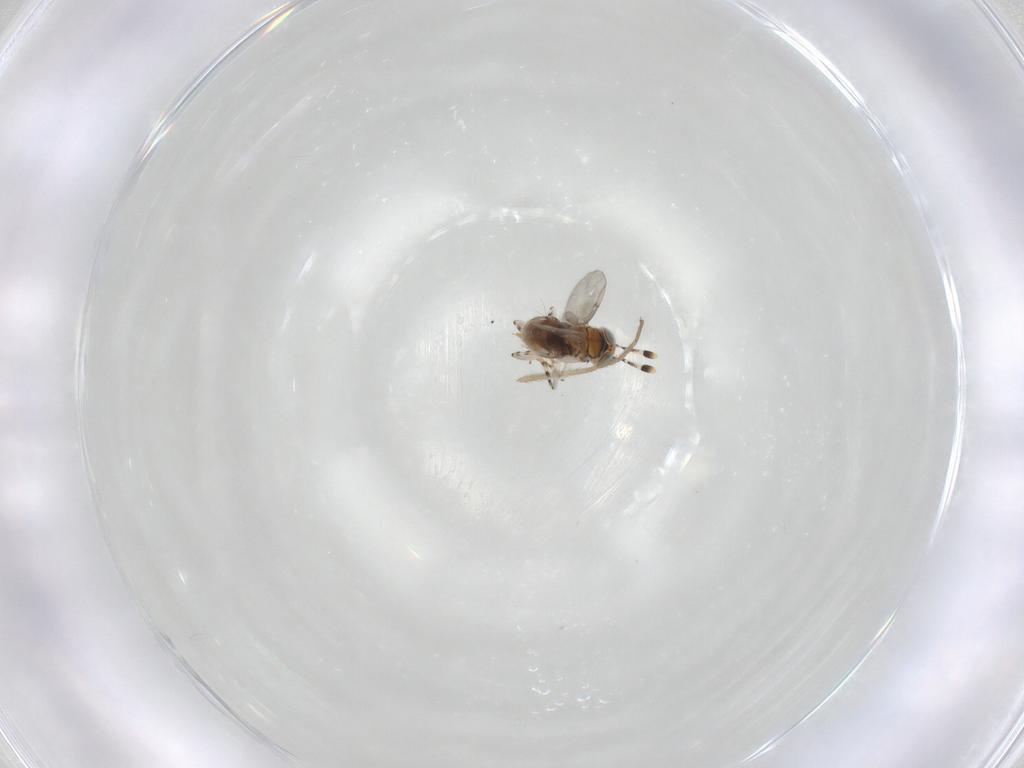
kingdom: Animalia
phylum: Arthropoda
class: Insecta
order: Hymenoptera
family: Encyrtidae
